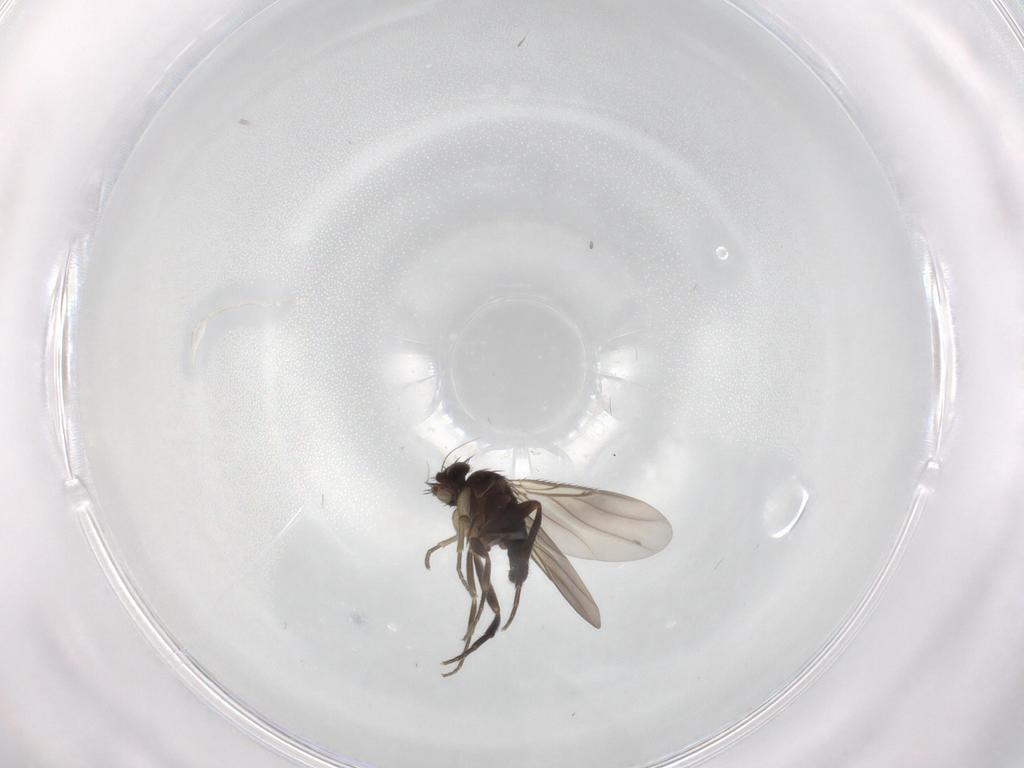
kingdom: Animalia
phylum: Arthropoda
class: Insecta
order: Diptera
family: Phoridae
